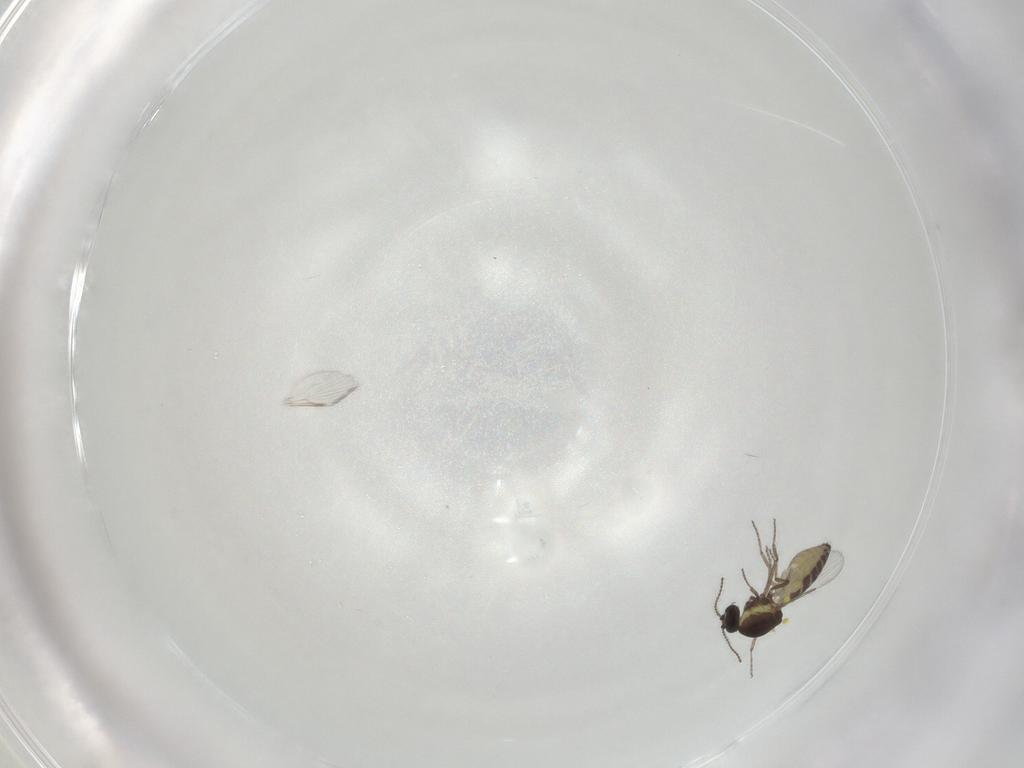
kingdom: Animalia
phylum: Arthropoda
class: Insecta
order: Diptera
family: Ceratopogonidae
